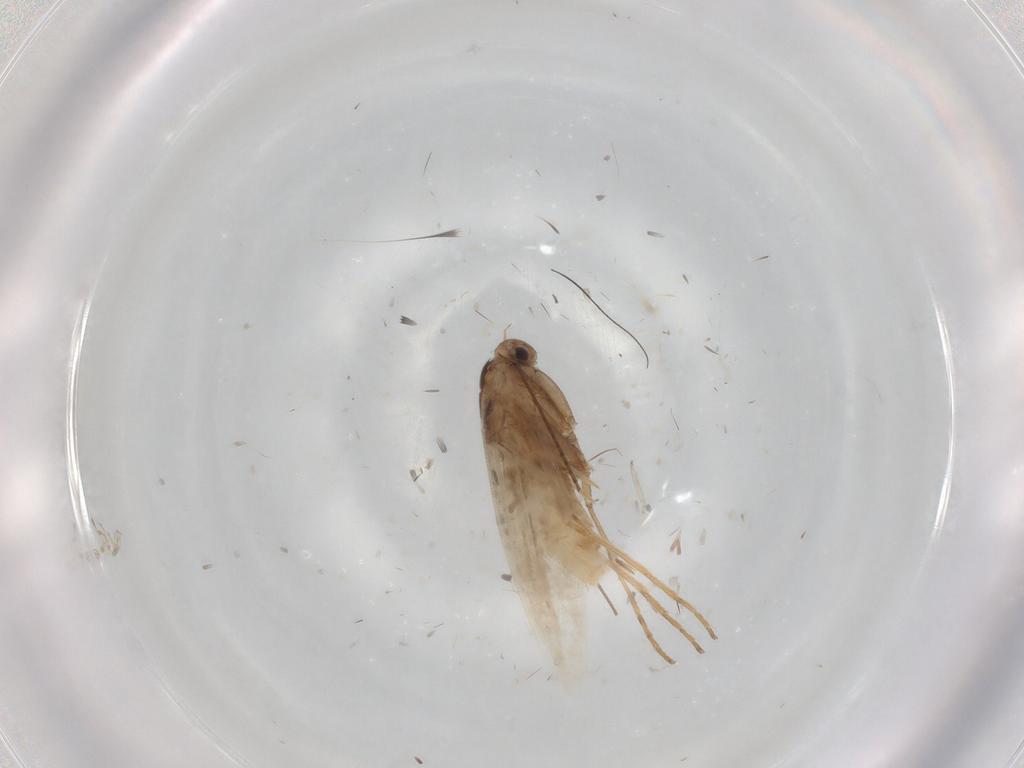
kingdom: Animalia
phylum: Arthropoda
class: Insecta
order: Lepidoptera
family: Gracillariidae
